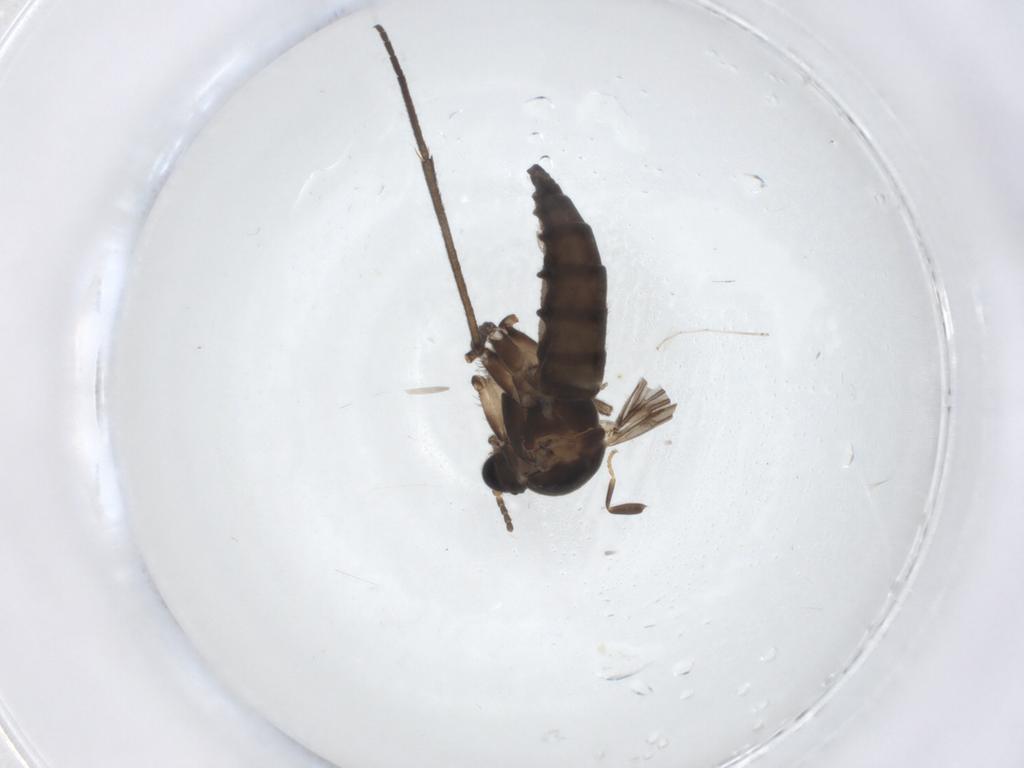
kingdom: Animalia
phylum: Arthropoda
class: Insecta
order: Diptera
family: Sciaridae
